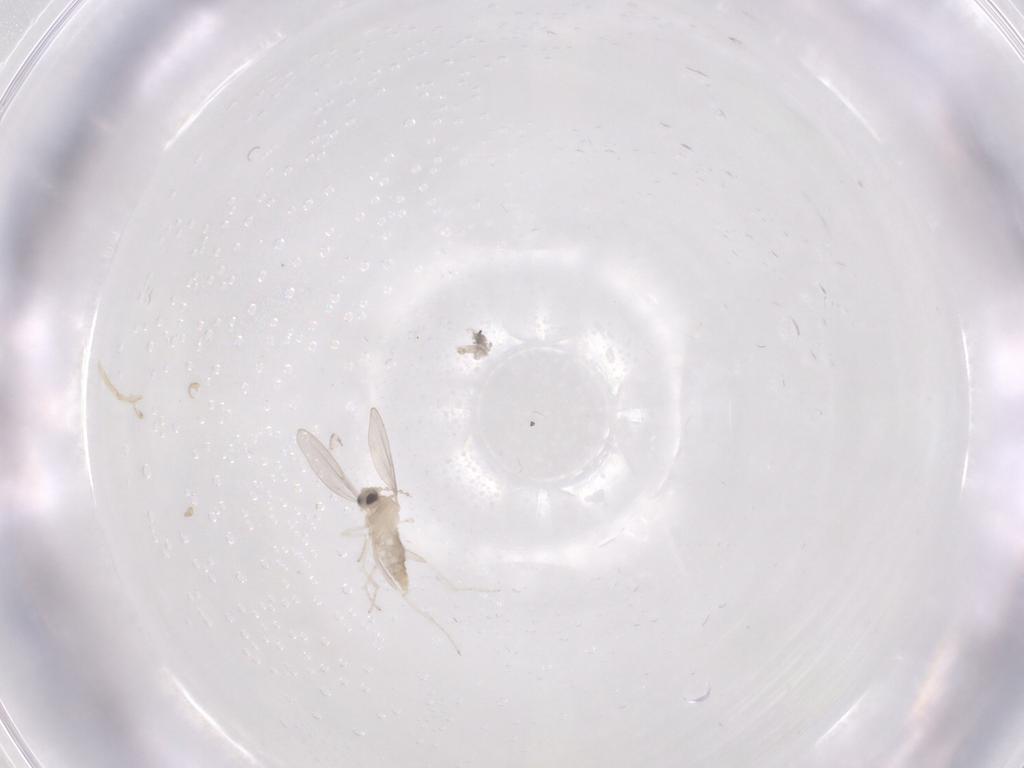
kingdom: Animalia
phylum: Arthropoda
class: Insecta
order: Diptera
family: Cecidomyiidae
